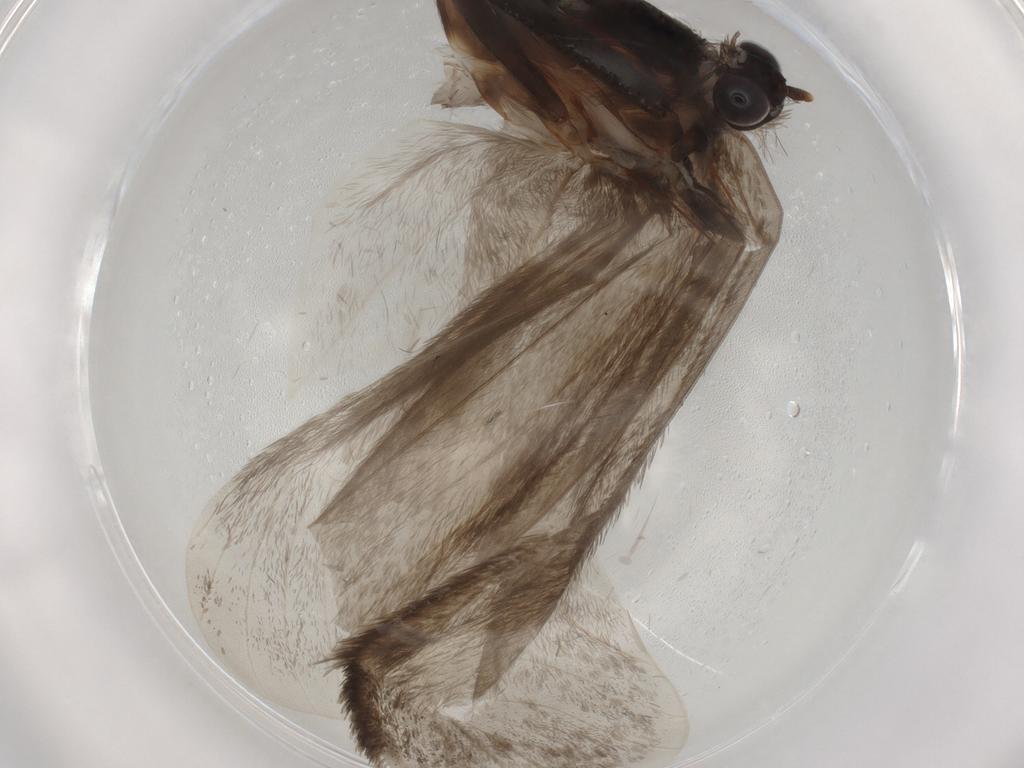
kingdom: Animalia
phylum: Arthropoda
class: Insecta
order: Lepidoptera
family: Psychidae
